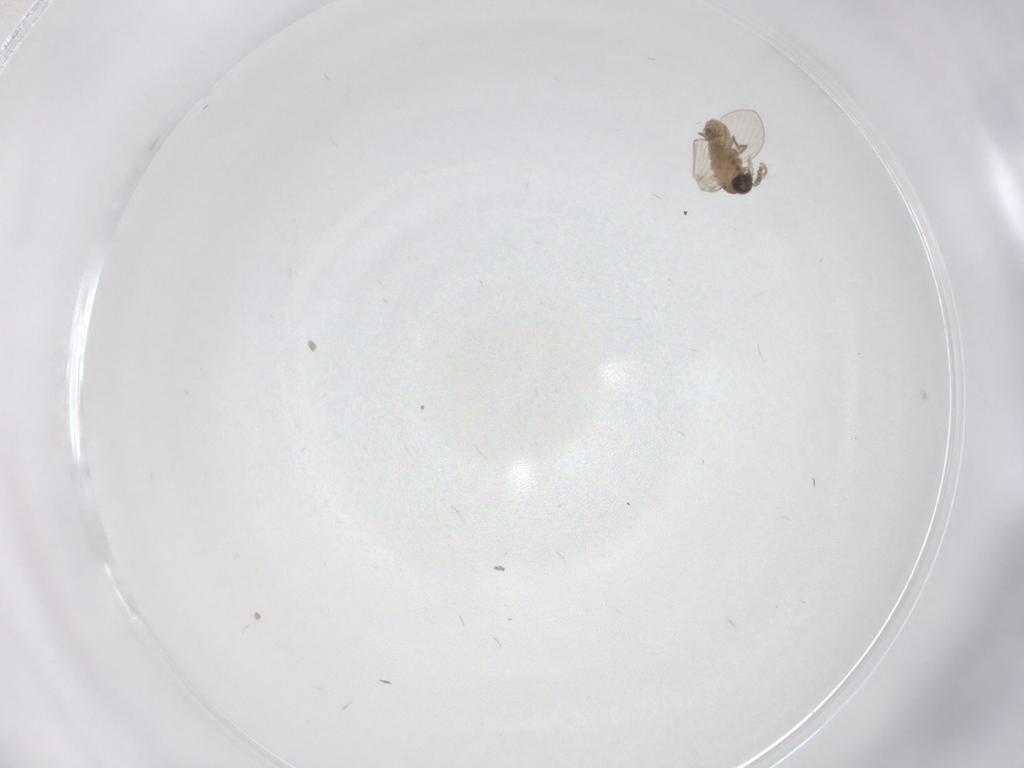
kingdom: Animalia
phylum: Arthropoda
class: Insecta
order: Diptera
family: Psychodidae
